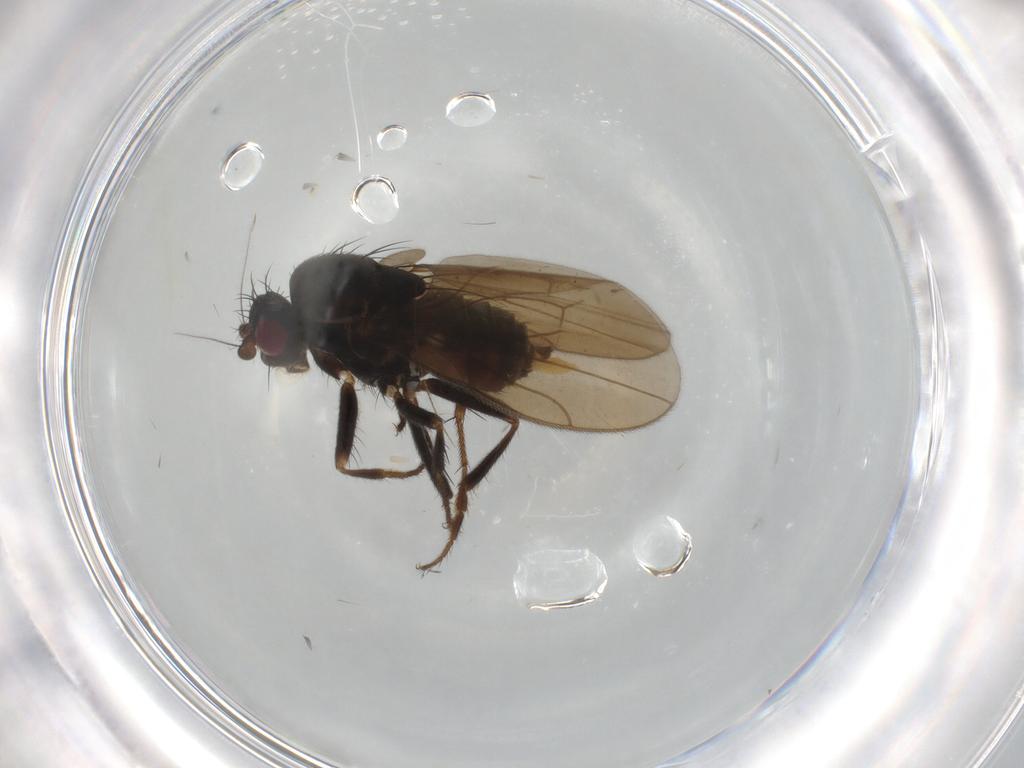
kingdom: Animalia
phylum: Arthropoda
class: Insecta
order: Diptera
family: Sphaeroceridae
